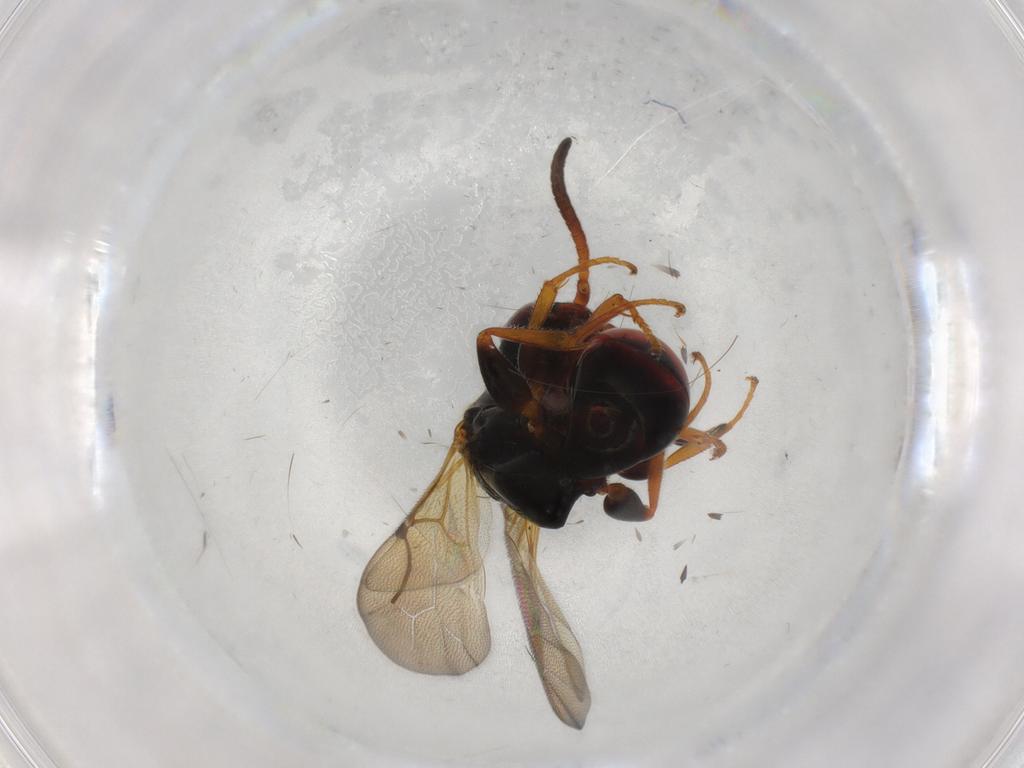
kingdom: Animalia
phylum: Arthropoda
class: Insecta
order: Hymenoptera
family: Bethylidae
